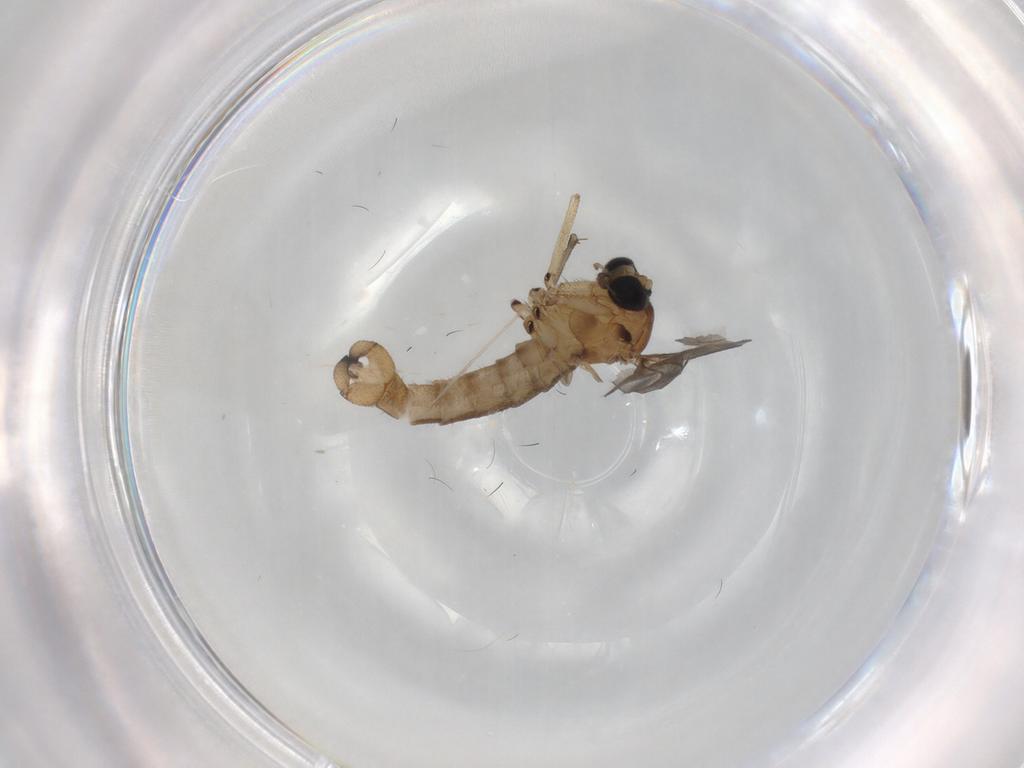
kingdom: Animalia
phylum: Arthropoda
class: Insecta
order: Diptera
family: Sciaridae
